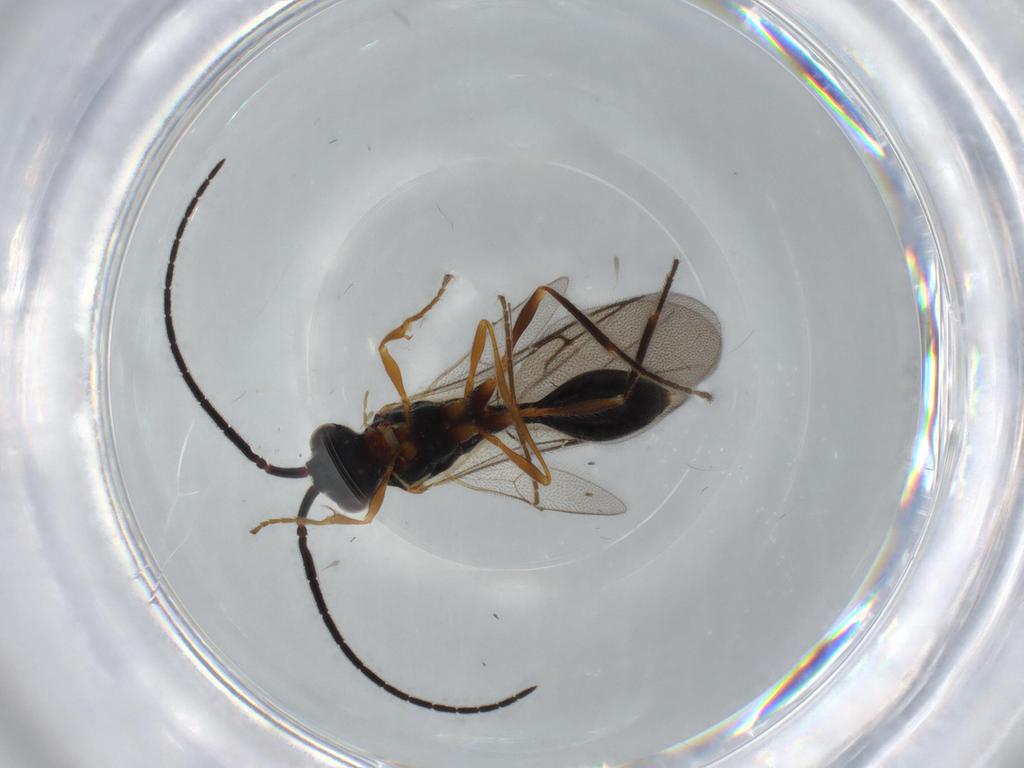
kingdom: Animalia
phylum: Arthropoda
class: Insecta
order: Hymenoptera
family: Diapriidae
